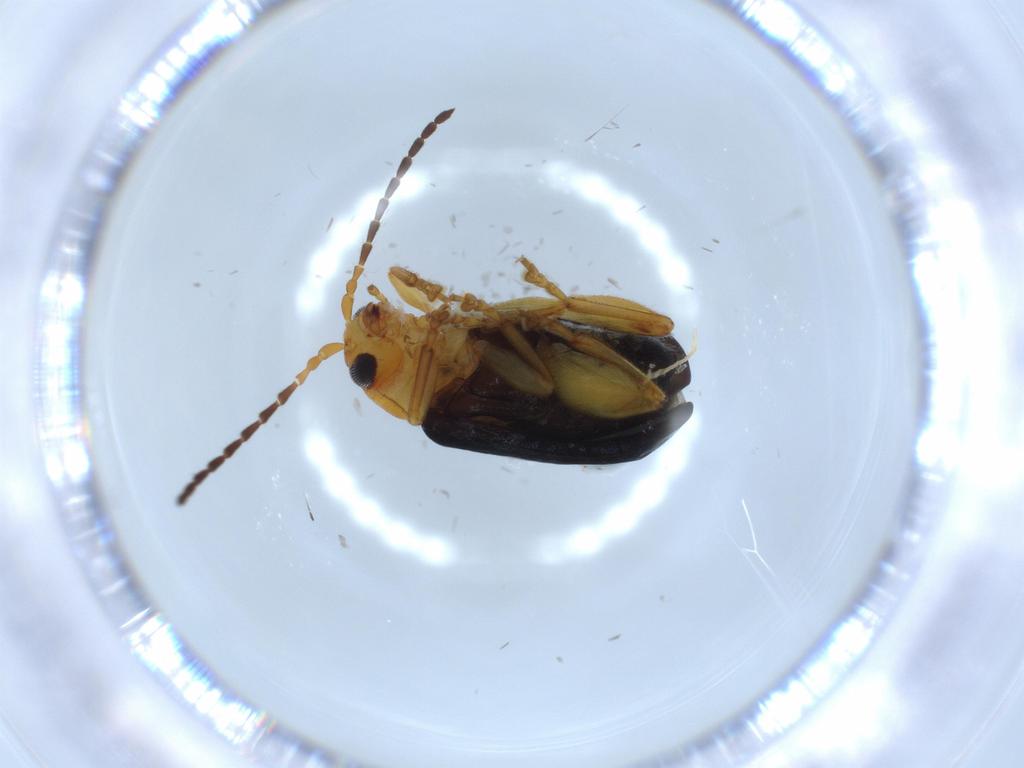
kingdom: Animalia
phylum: Arthropoda
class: Insecta
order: Coleoptera
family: Chrysomelidae
